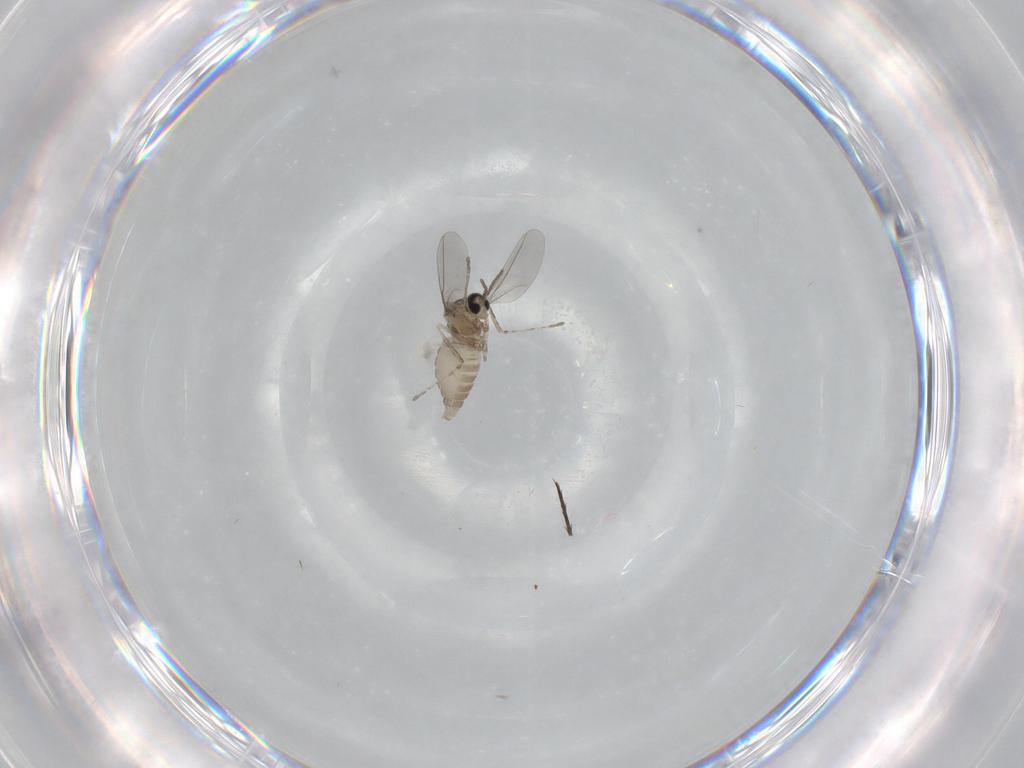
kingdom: Animalia
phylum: Arthropoda
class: Insecta
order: Diptera
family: Cecidomyiidae
